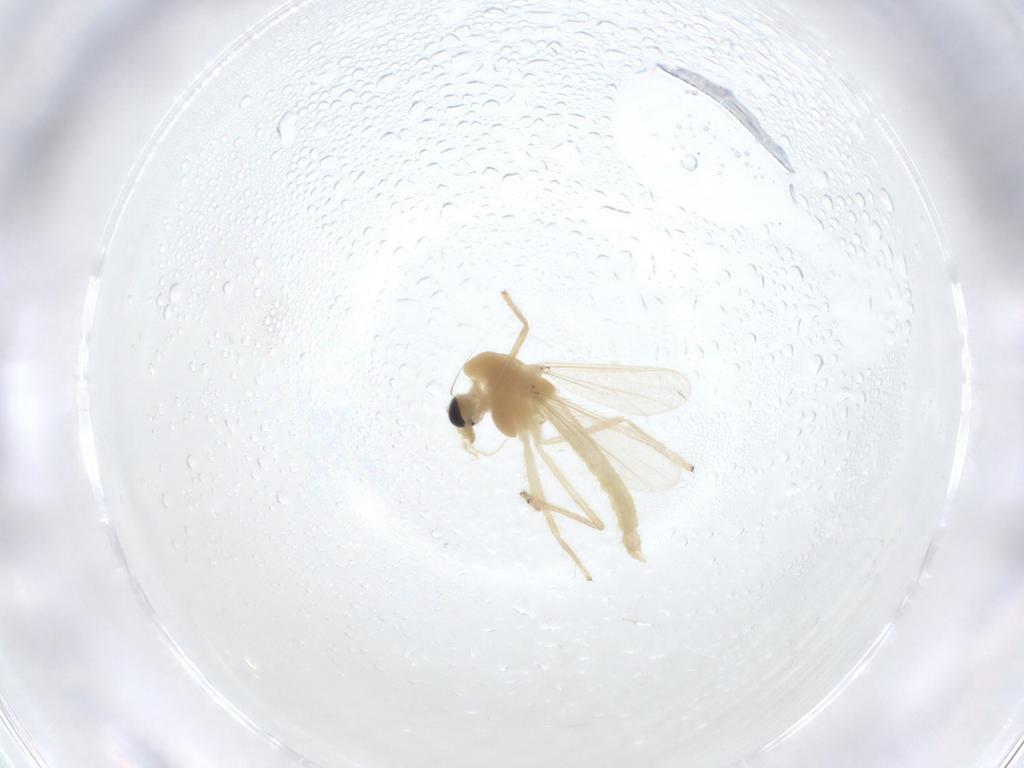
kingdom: Animalia
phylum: Arthropoda
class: Insecta
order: Diptera
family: Chironomidae
